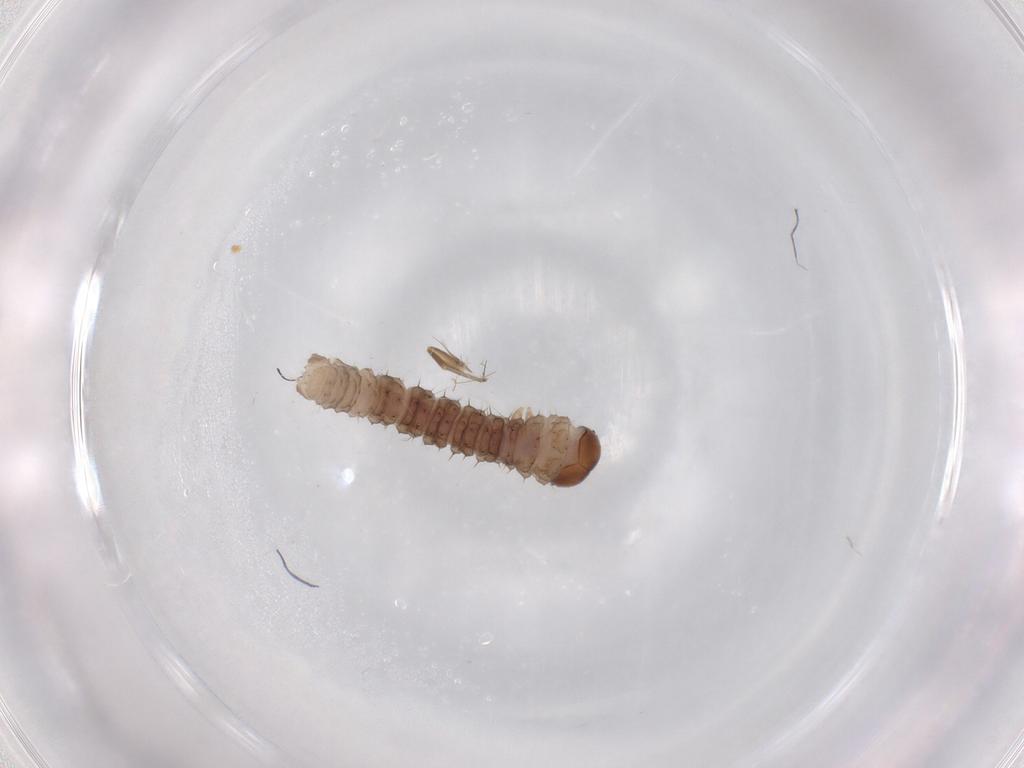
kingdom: Animalia
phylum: Arthropoda
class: Insecta
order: Lepidoptera
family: Geometridae
